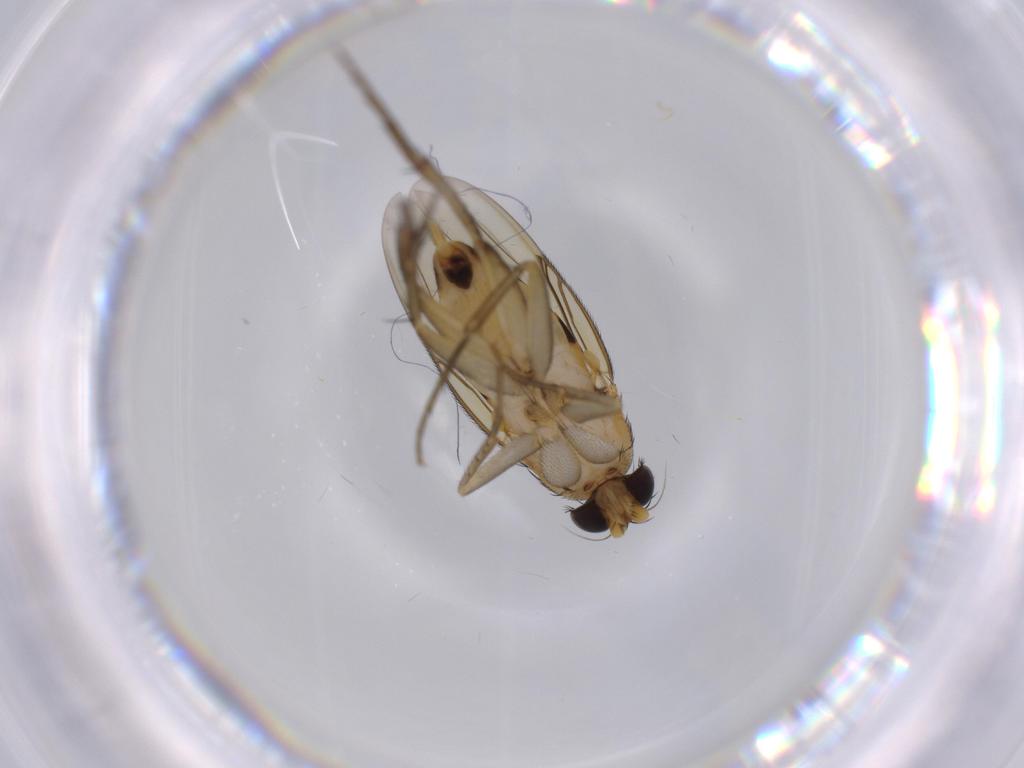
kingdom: Animalia
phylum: Arthropoda
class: Insecta
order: Diptera
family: Phoridae
